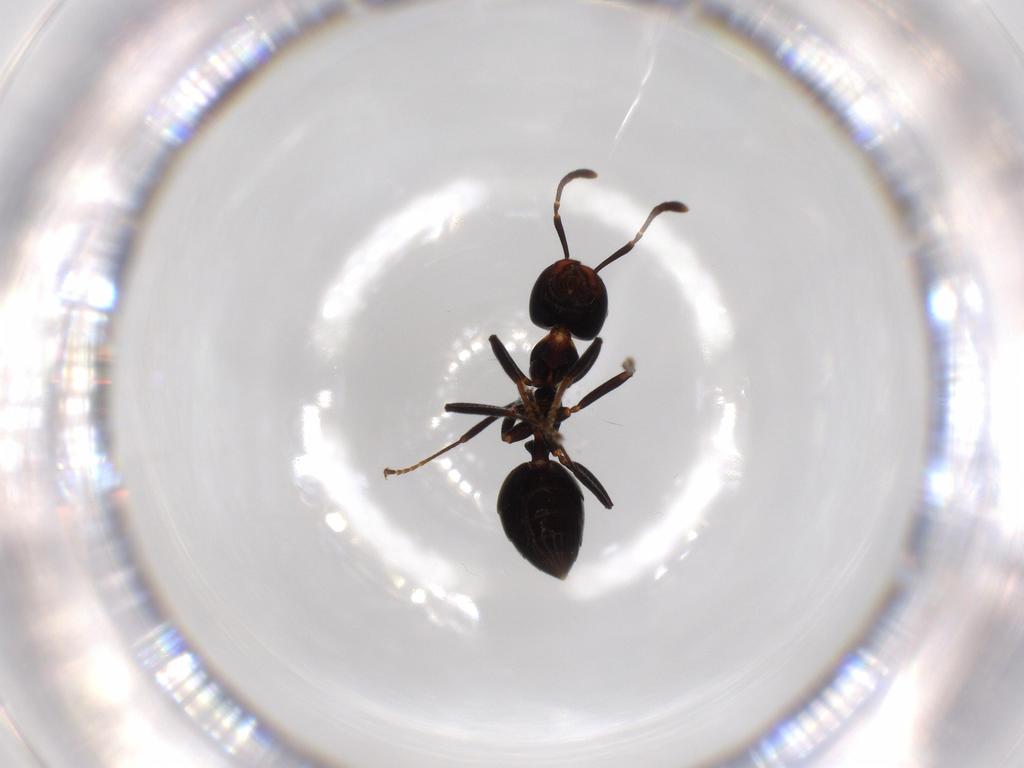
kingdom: Animalia
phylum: Arthropoda
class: Insecta
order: Hymenoptera
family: Formicidae
